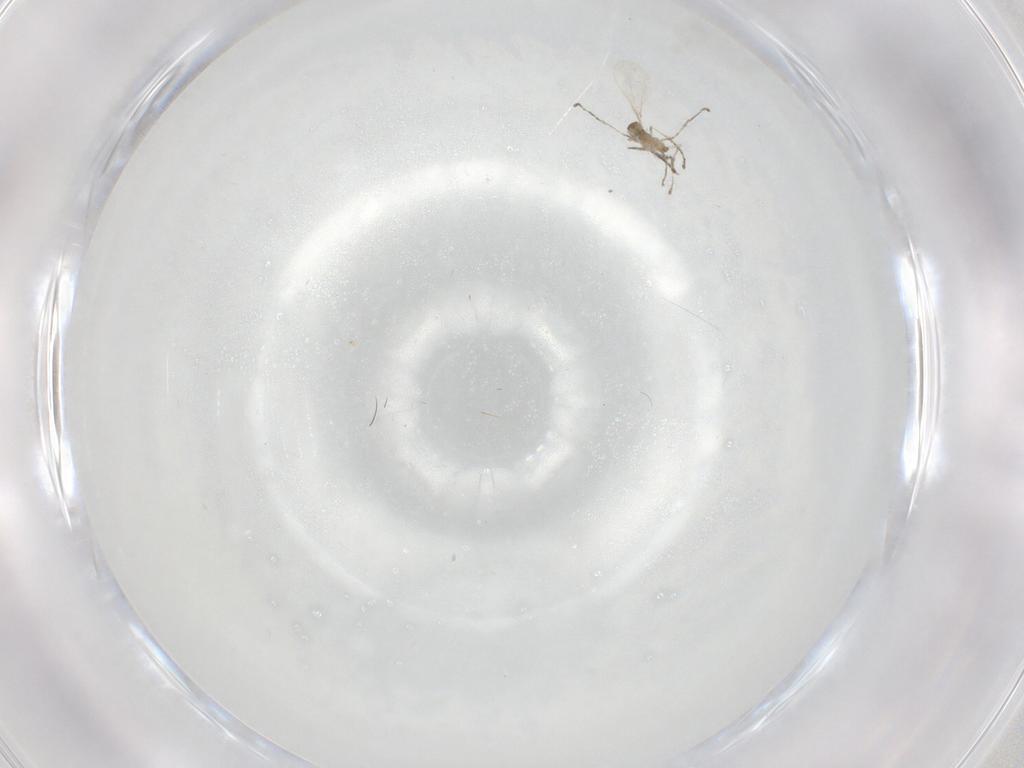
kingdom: Animalia
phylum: Arthropoda
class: Insecta
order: Diptera
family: Cecidomyiidae
